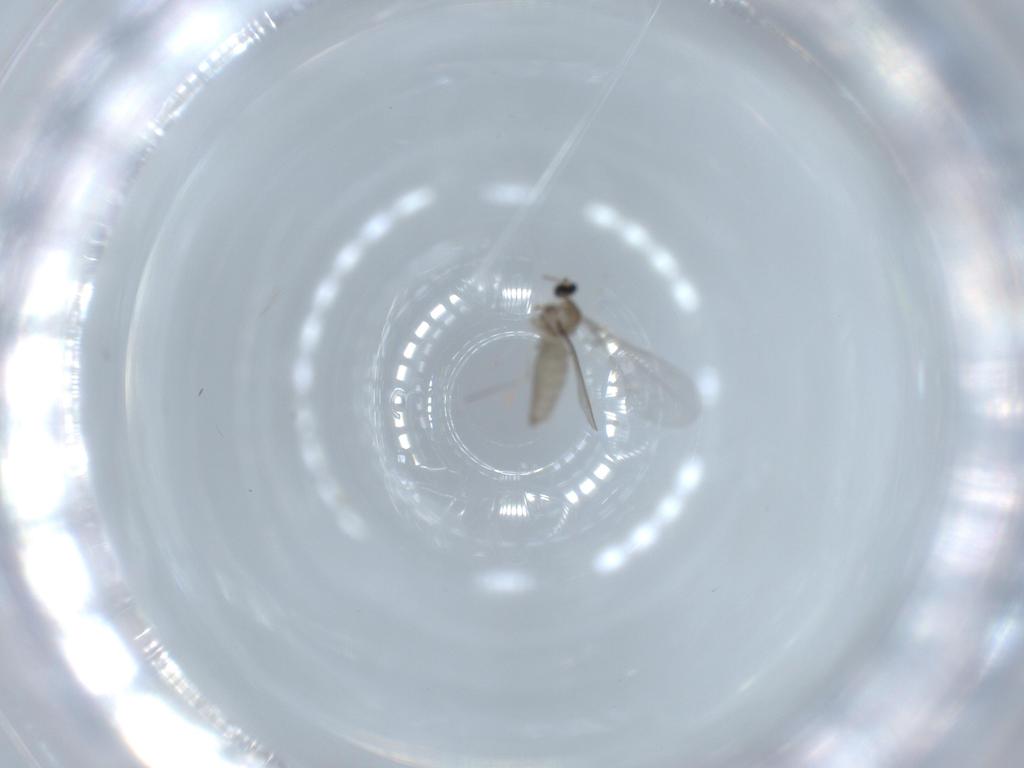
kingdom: Animalia
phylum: Arthropoda
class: Insecta
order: Diptera
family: Cecidomyiidae
